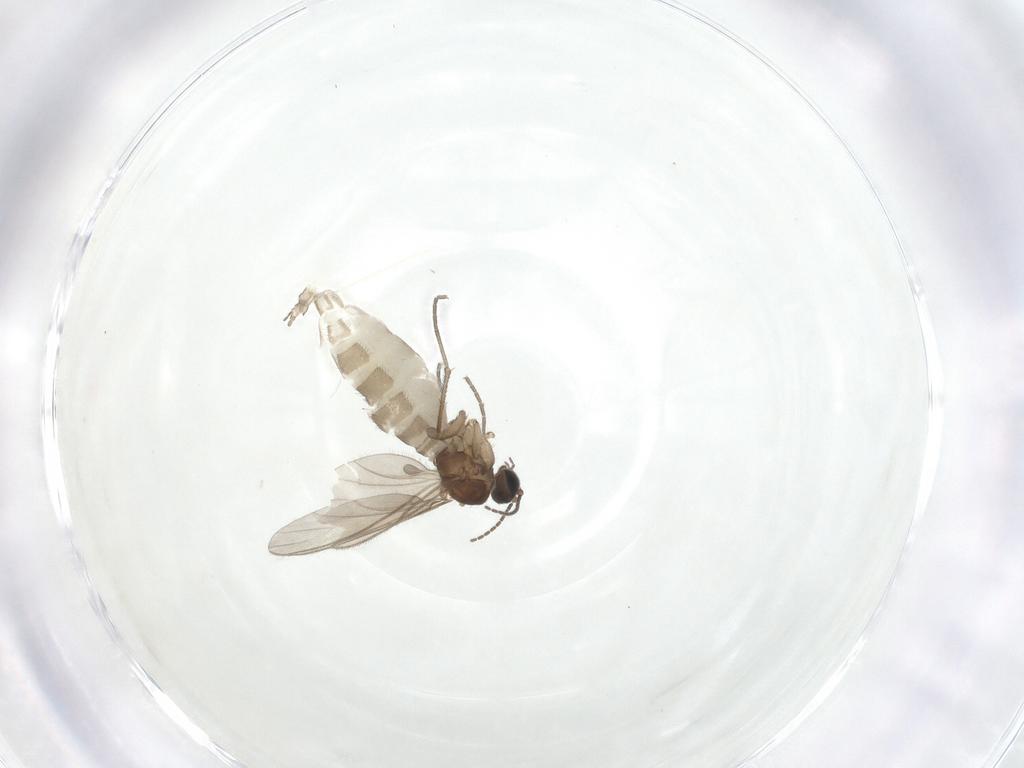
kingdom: Animalia
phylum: Arthropoda
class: Insecta
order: Diptera
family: Sciaridae
